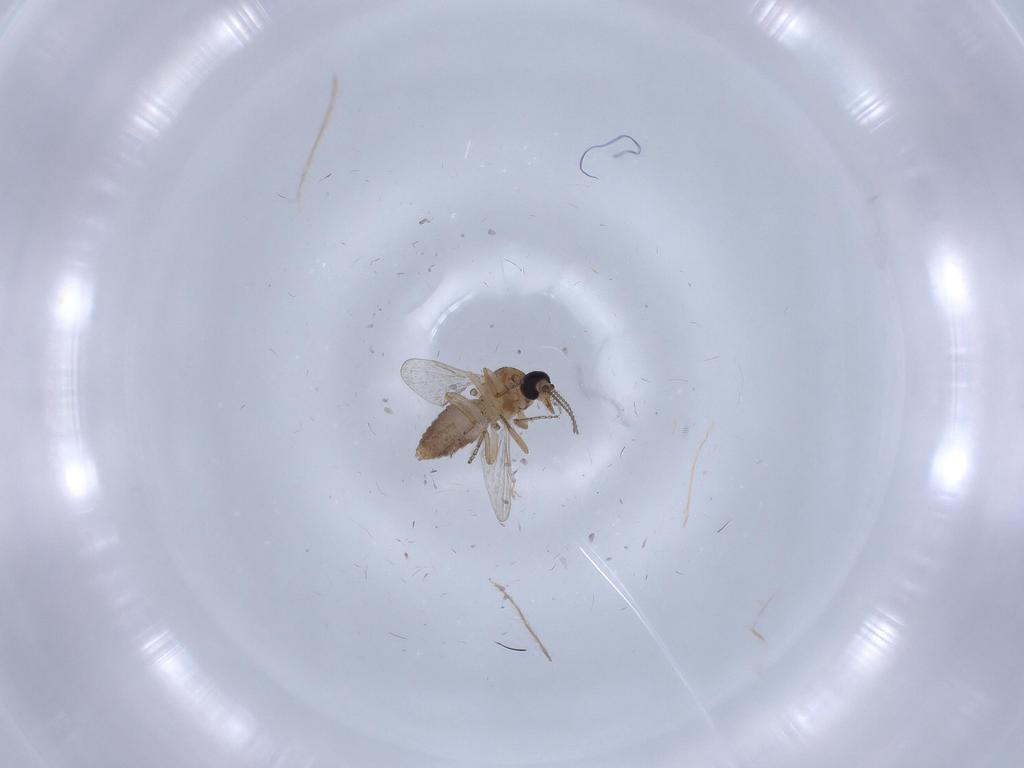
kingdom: Animalia
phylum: Arthropoda
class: Insecta
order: Diptera
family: Ceratopogonidae
